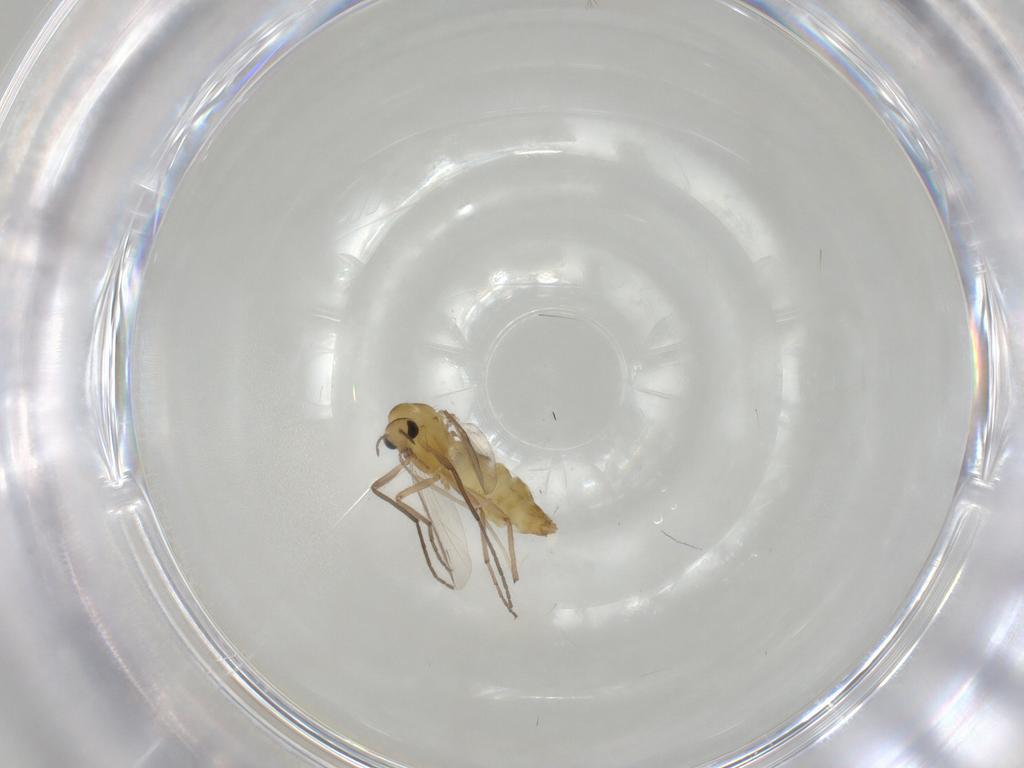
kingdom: Animalia
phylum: Arthropoda
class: Insecta
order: Diptera
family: Chironomidae
